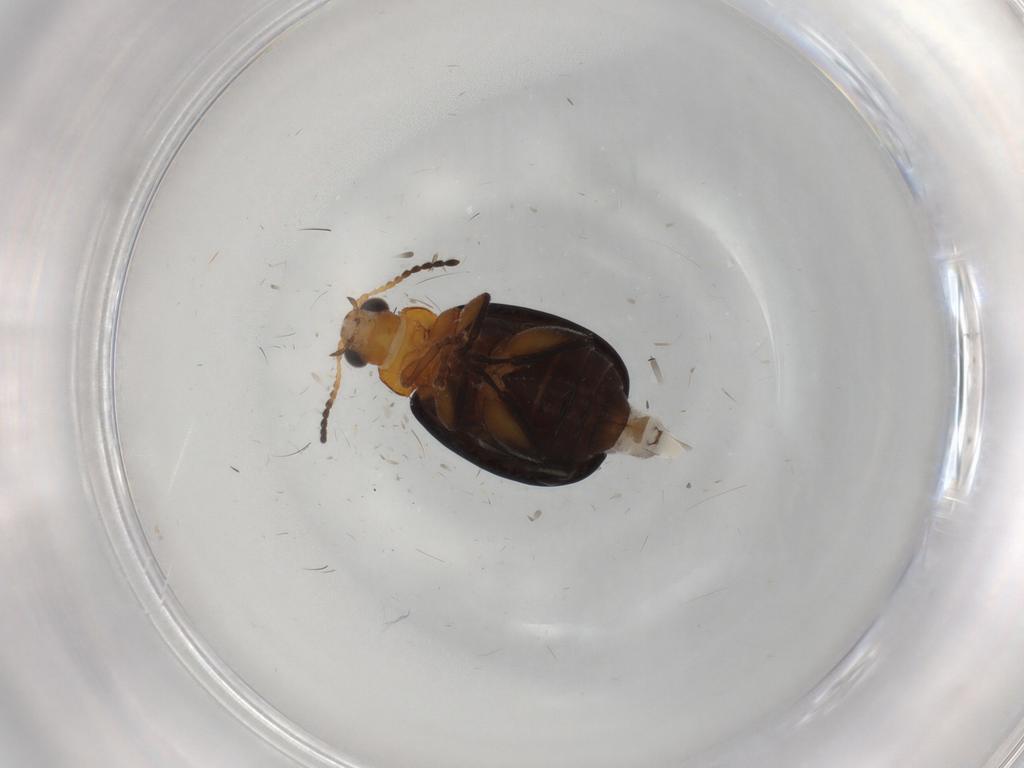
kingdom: Animalia
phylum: Arthropoda
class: Insecta
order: Coleoptera
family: Chrysomelidae
